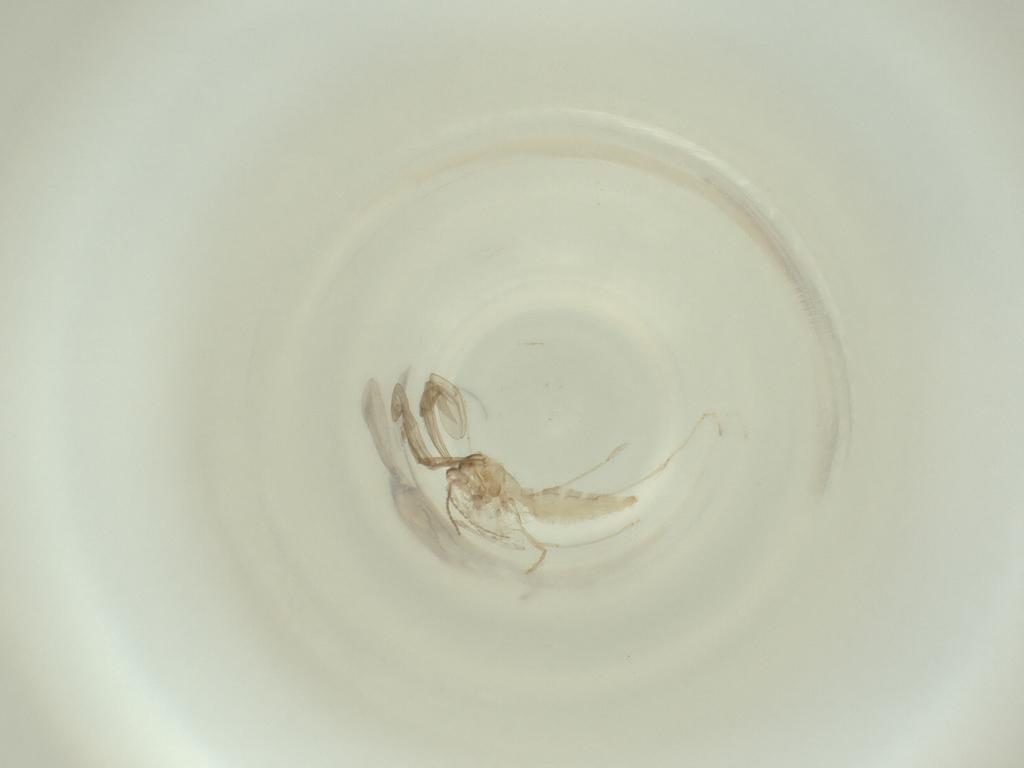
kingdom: Animalia
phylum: Arthropoda
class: Insecta
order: Diptera
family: Cecidomyiidae
